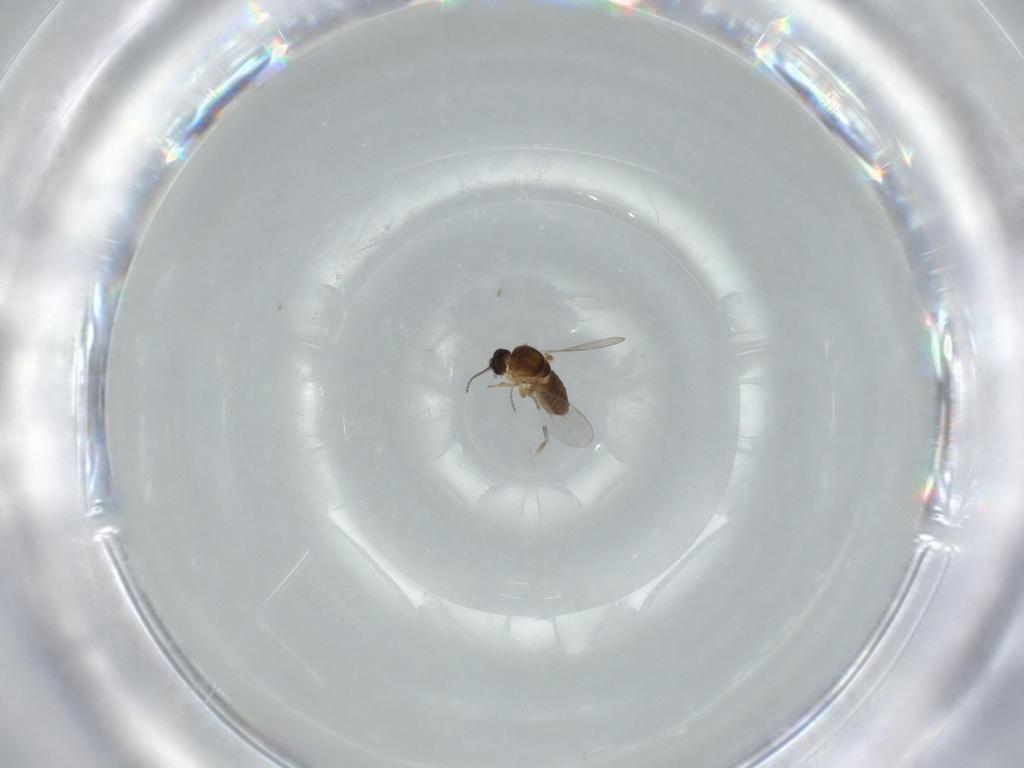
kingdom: Animalia
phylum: Arthropoda
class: Insecta
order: Diptera
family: Ceratopogonidae
